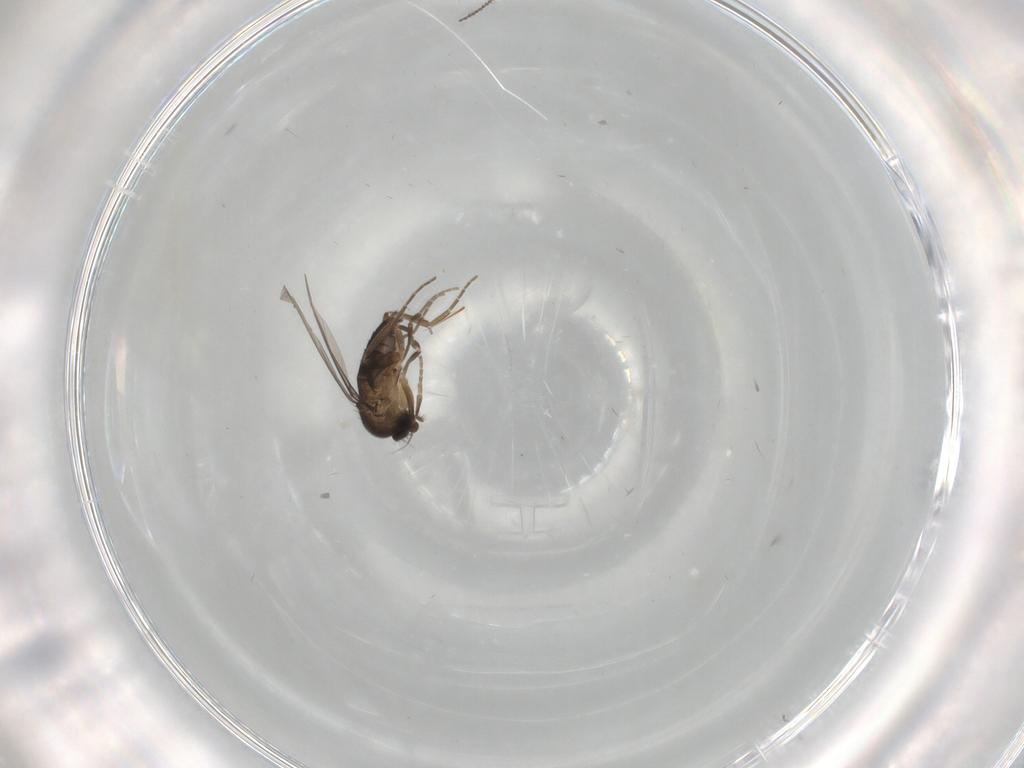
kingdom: Animalia
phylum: Arthropoda
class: Insecta
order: Diptera
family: Phoridae
